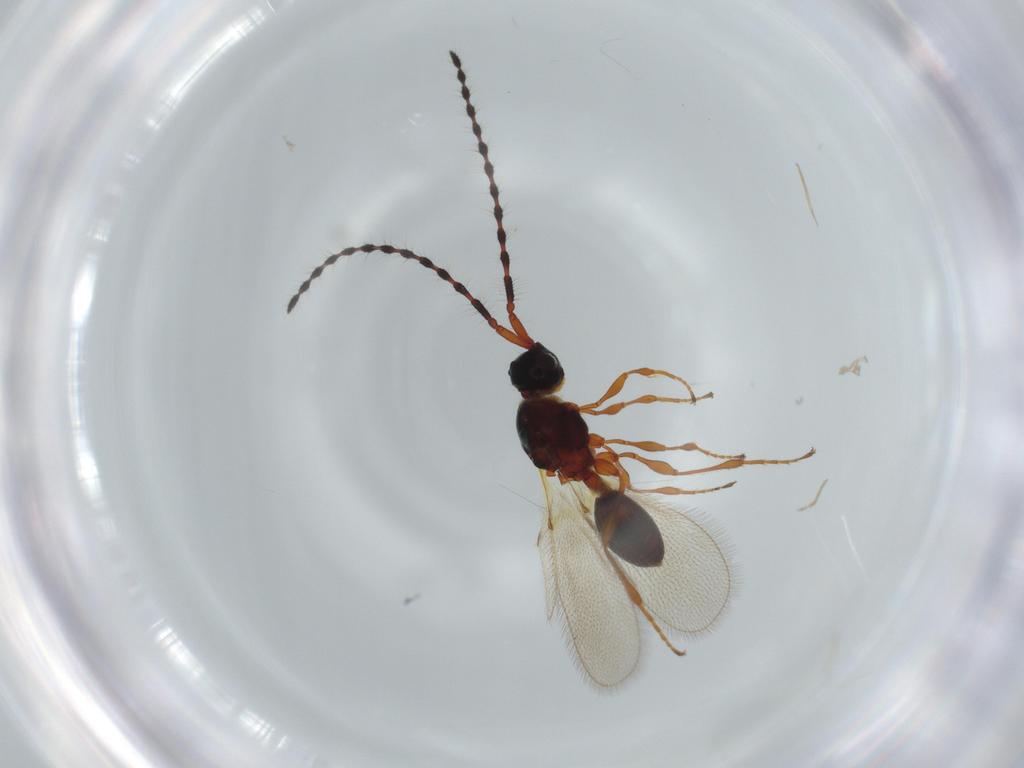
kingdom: Animalia
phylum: Arthropoda
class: Insecta
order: Hymenoptera
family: Diapriidae
